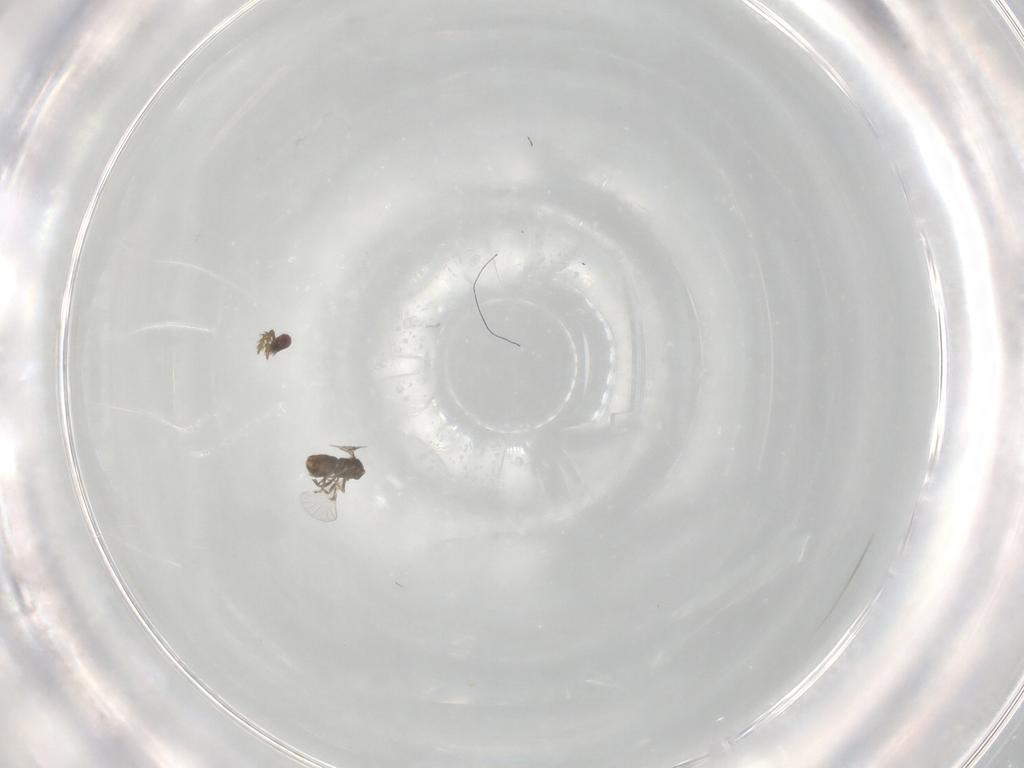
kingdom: Animalia
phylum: Arthropoda
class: Insecta
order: Hymenoptera
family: Agaonidae
